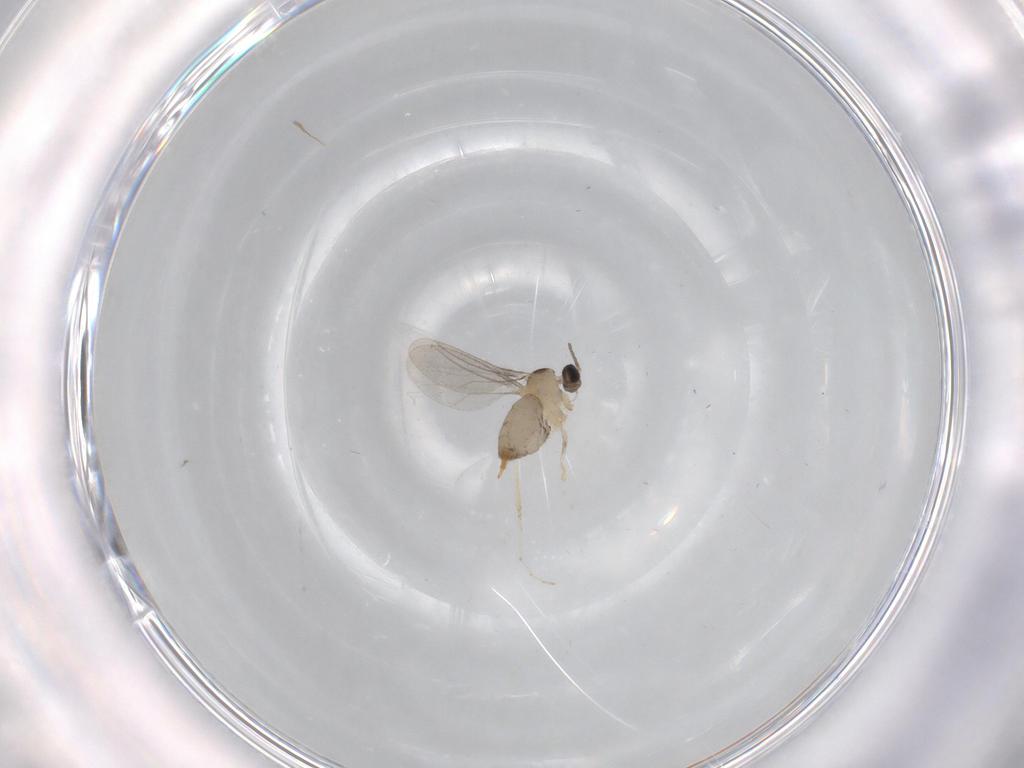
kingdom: Animalia
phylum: Arthropoda
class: Insecta
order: Diptera
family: Cecidomyiidae
